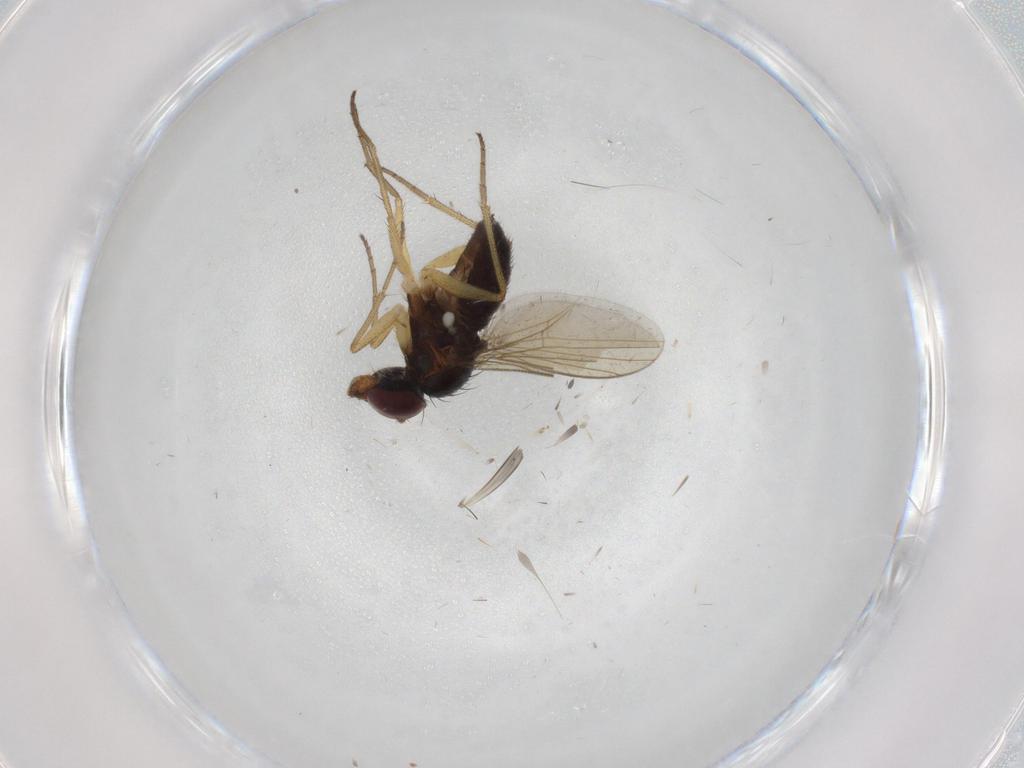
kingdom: Animalia
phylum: Arthropoda
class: Insecta
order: Diptera
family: Dolichopodidae
